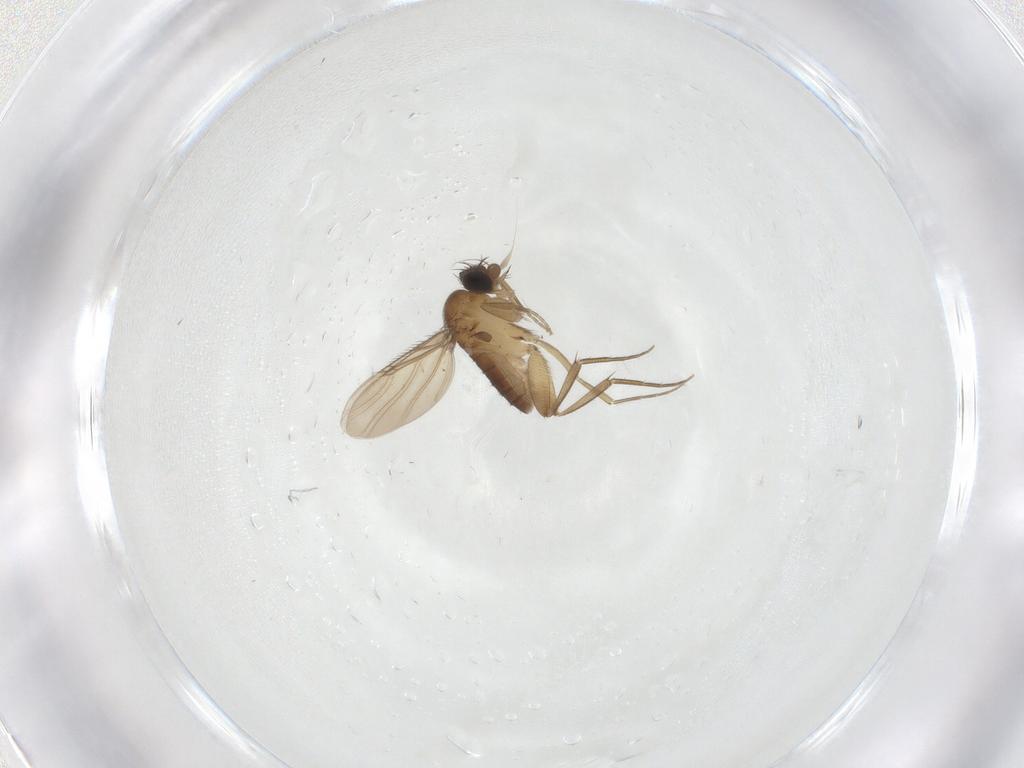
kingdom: Animalia
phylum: Arthropoda
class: Insecta
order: Diptera
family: Phoridae
